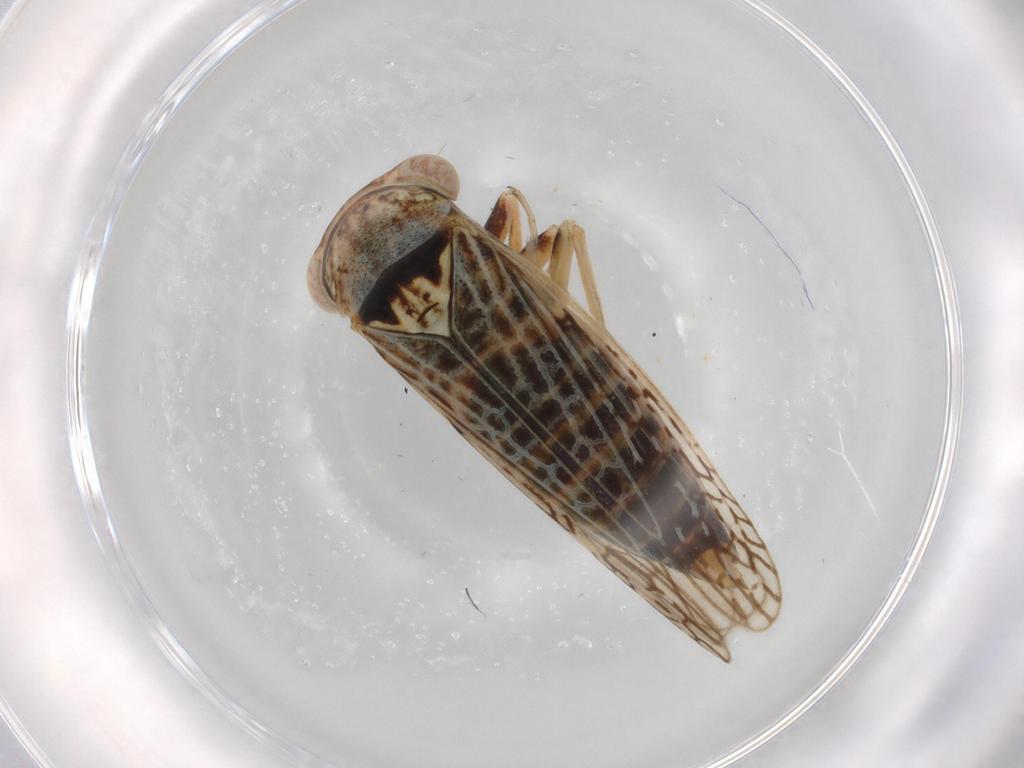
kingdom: Animalia
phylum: Arthropoda
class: Insecta
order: Hemiptera
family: Cicadellidae
